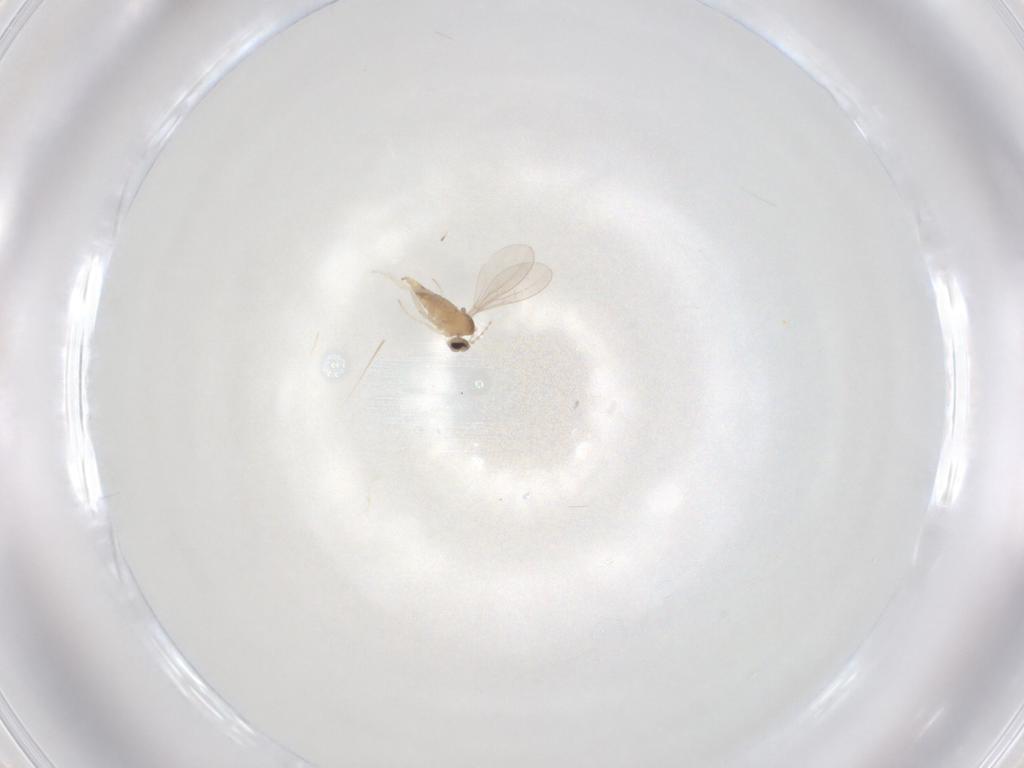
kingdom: Animalia
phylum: Arthropoda
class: Insecta
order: Diptera
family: Cecidomyiidae
